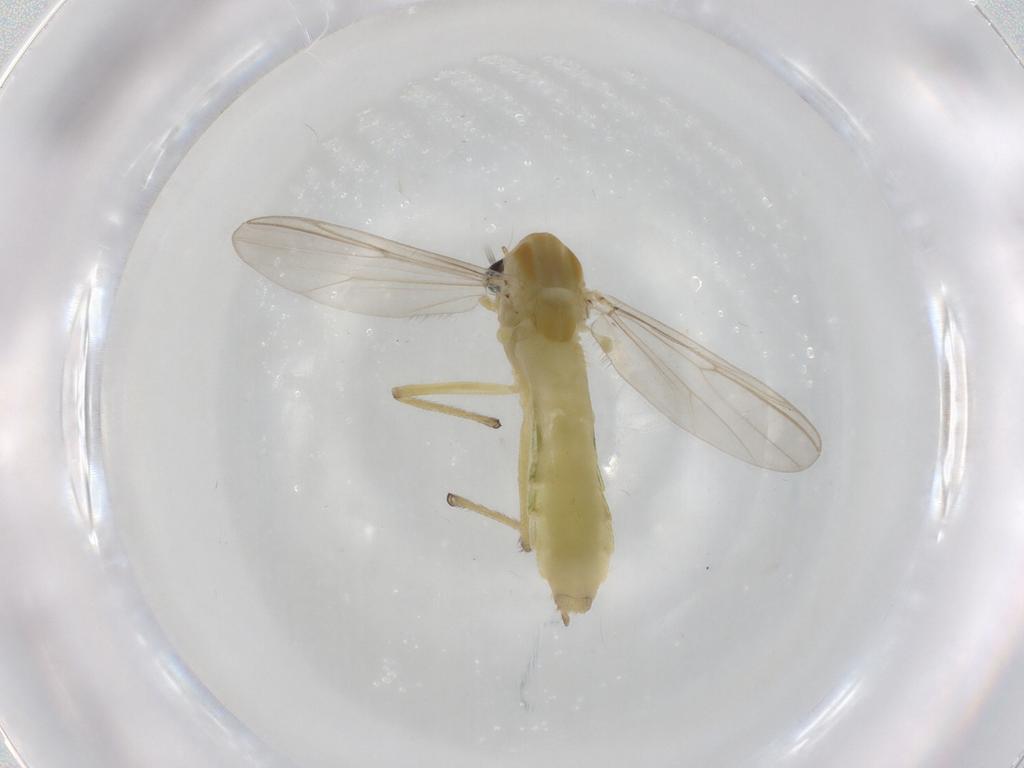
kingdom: Animalia
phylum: Arthropoda
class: Insecta
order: Diptera
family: Chironomidae
